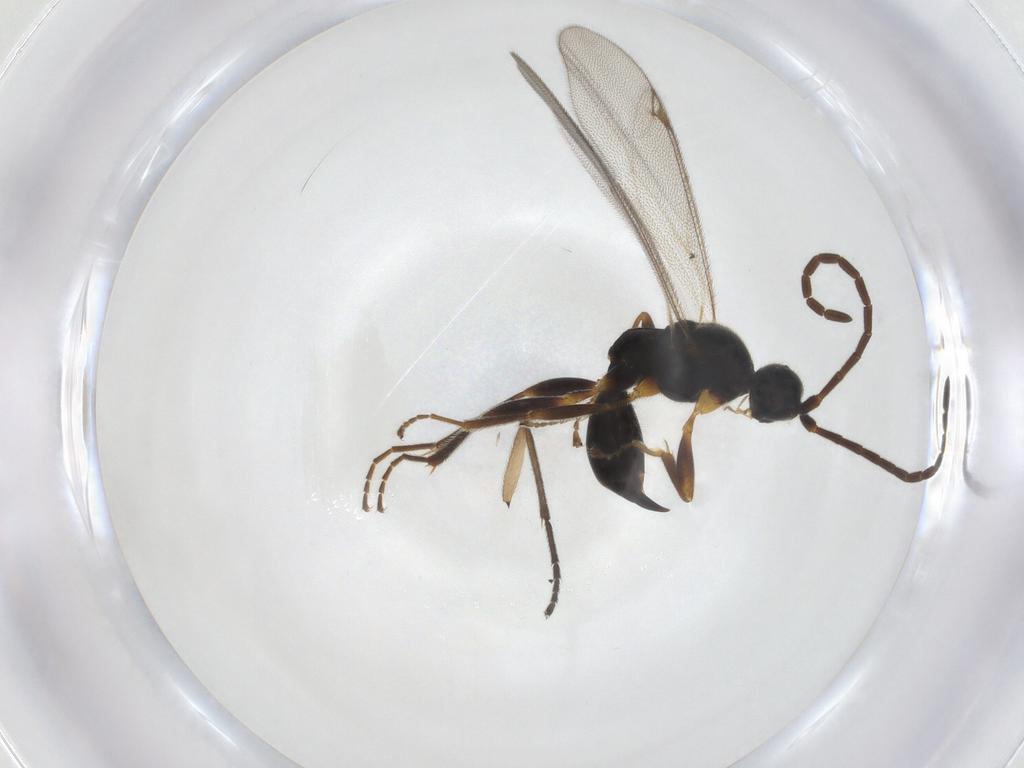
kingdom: Animalia
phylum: Arthropoda
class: Insecta
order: Hymenoptera
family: Proctotrupidae
